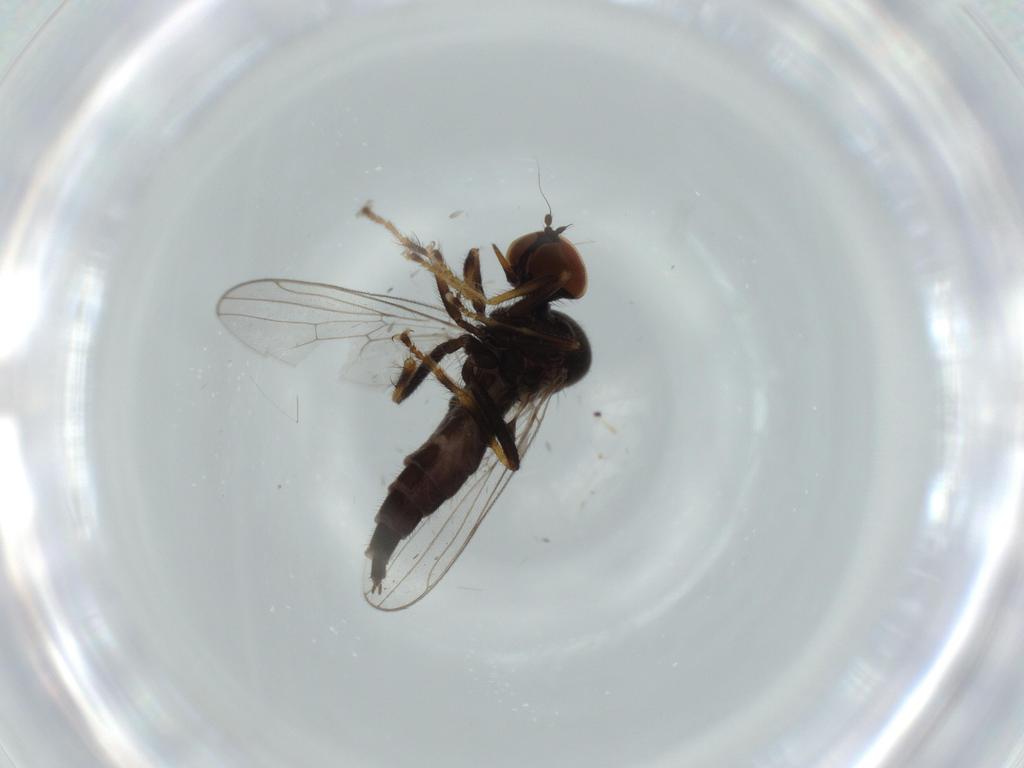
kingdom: Animalia
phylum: Arthropoda
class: Insecta
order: Diptera
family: Hybotidae
